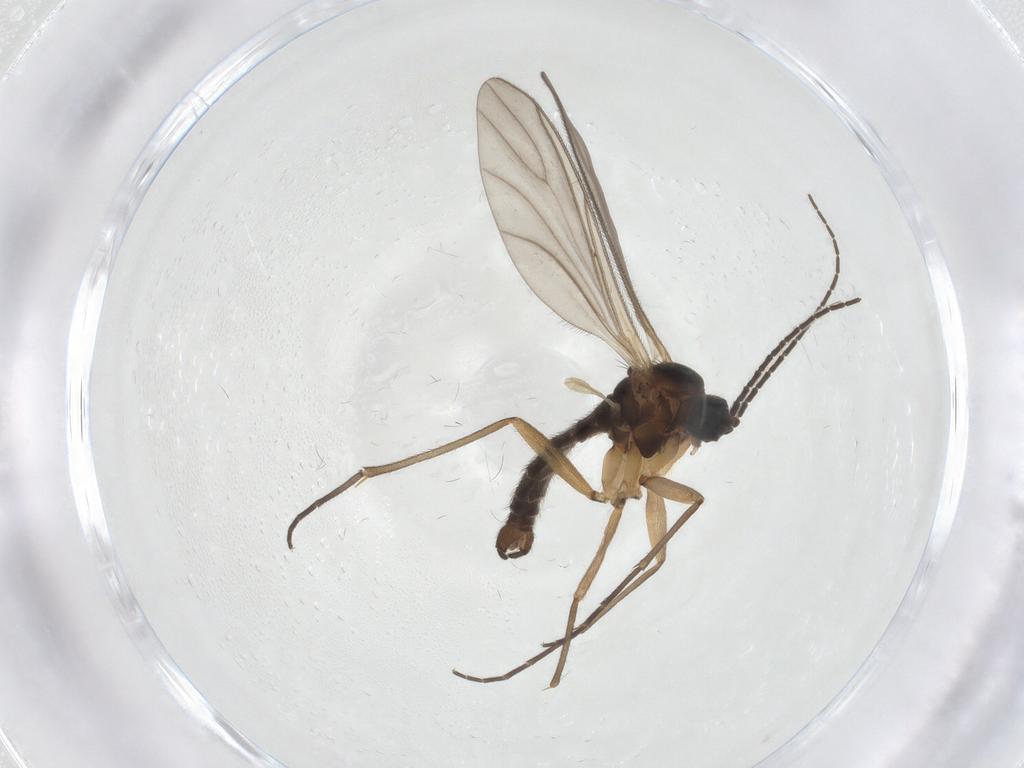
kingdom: Animalia
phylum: Arthropoda
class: Insecta
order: Diptera
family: Sciaridae
